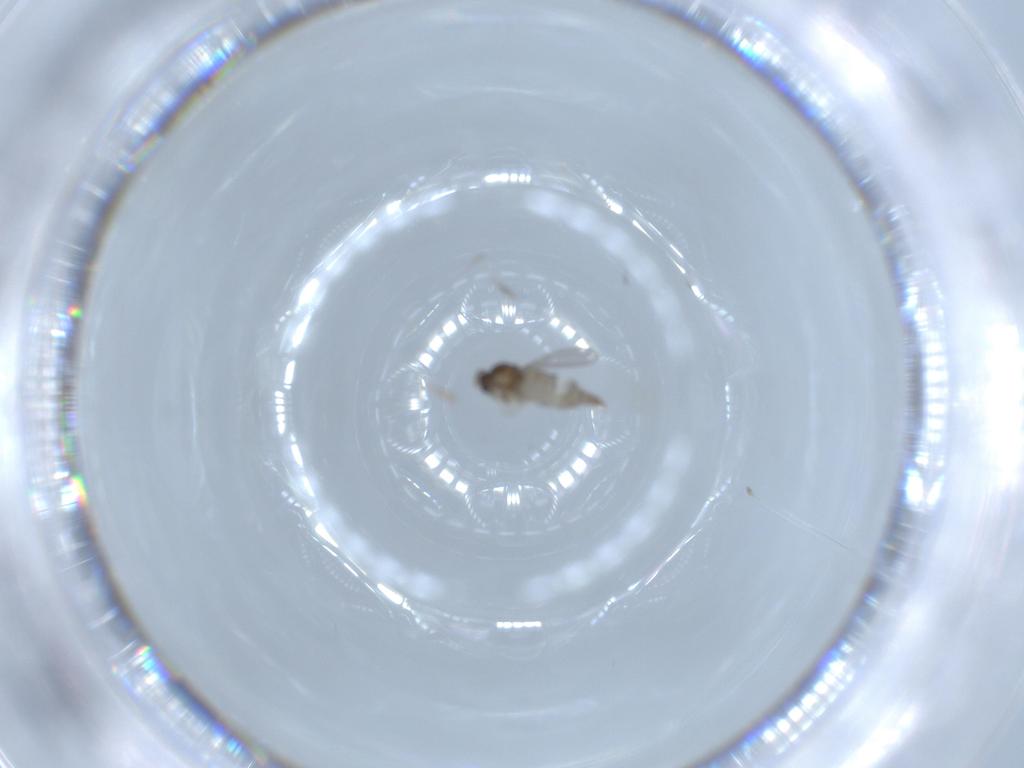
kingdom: Animalia
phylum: Arthropoda
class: Insecta
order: Diptera
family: Cecidomyiidae
